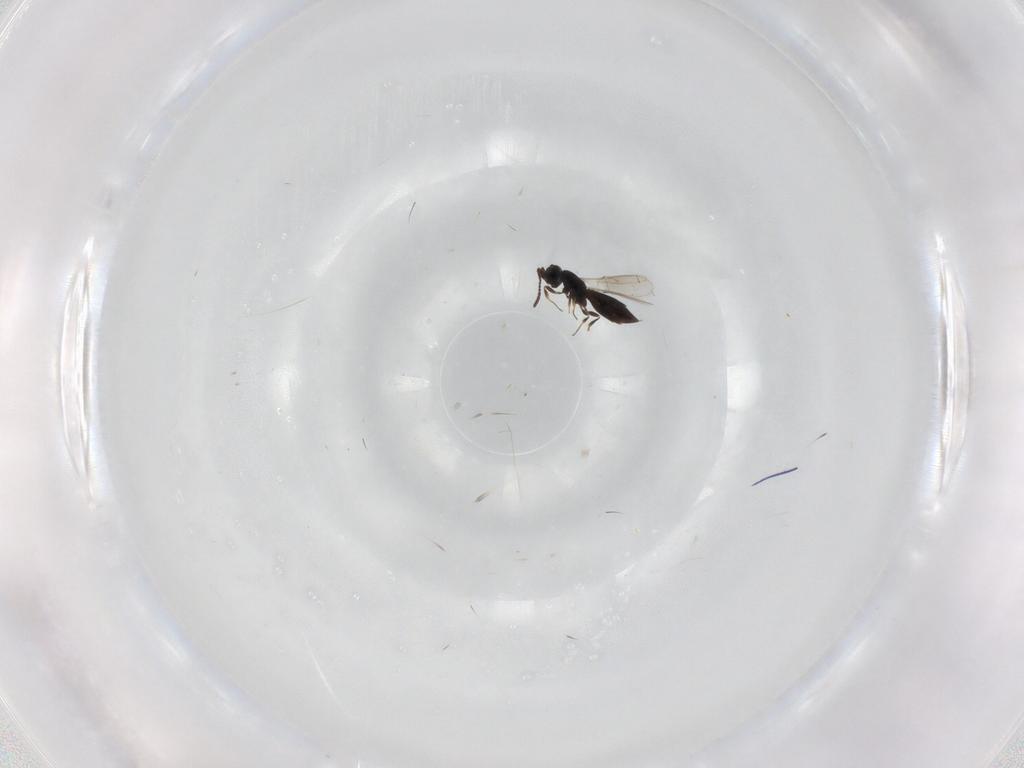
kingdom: Animalia
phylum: Arthropoda
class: Insecta
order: Hymenoptera
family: Scelionidae
